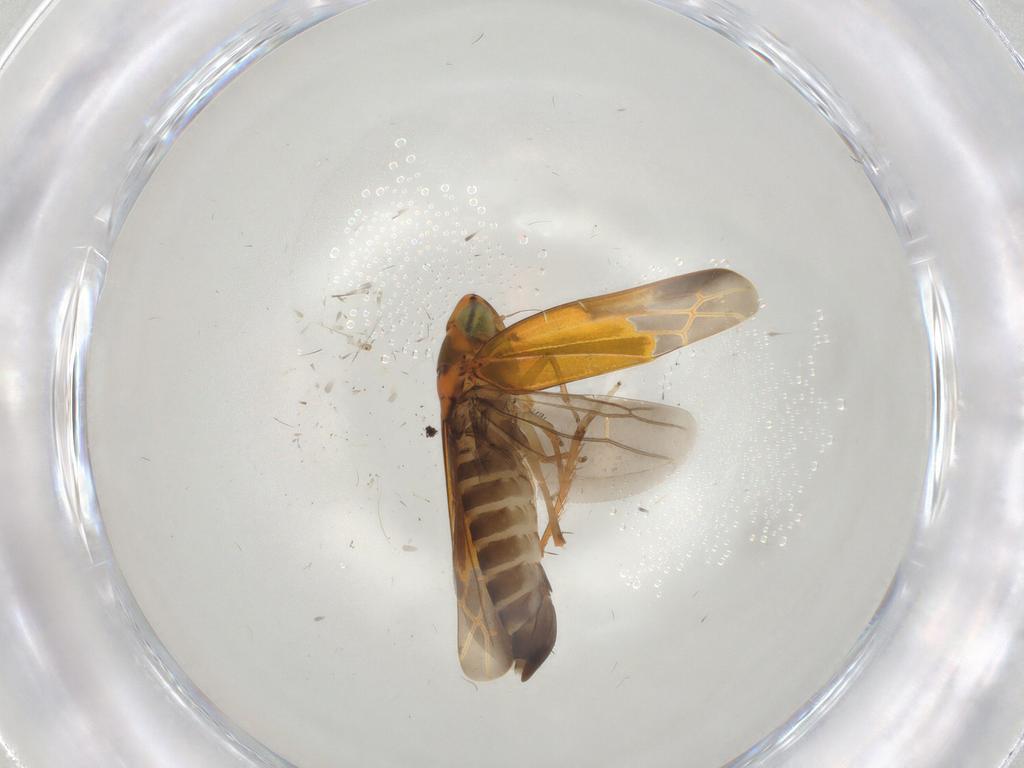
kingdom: Animalia
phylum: Arthropoda
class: Insecta
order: Hemiptera
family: Cicadellidae
